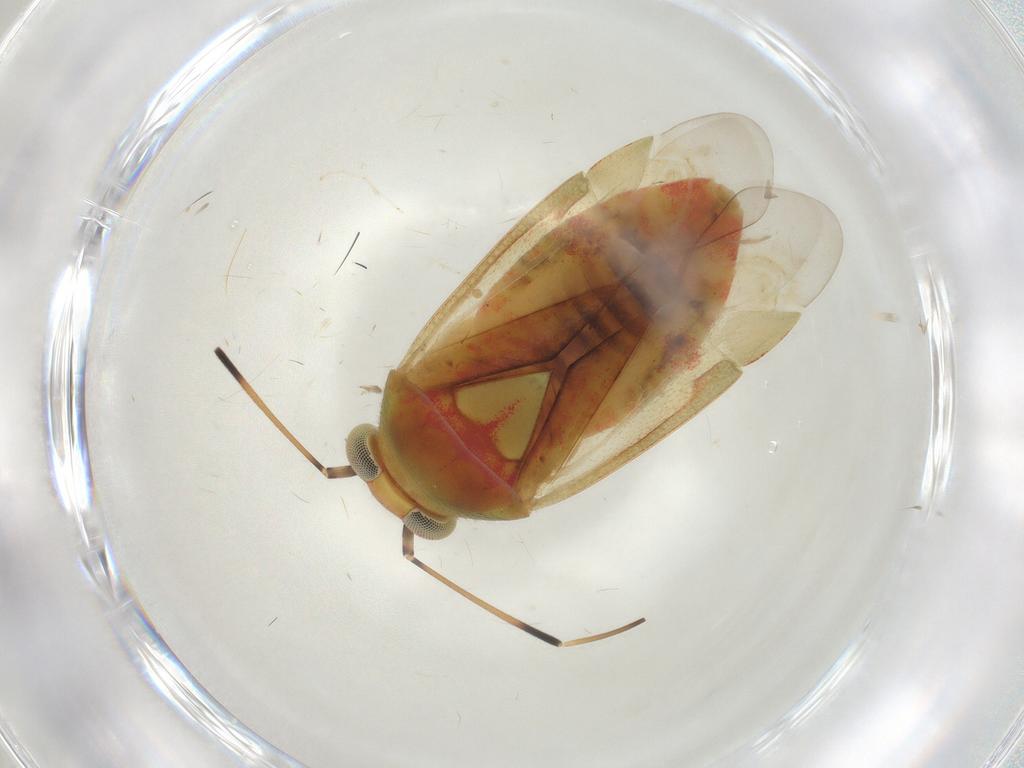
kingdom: Animalia
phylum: Arthropoda
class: Insecta
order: Hemiptera
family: Miridae
